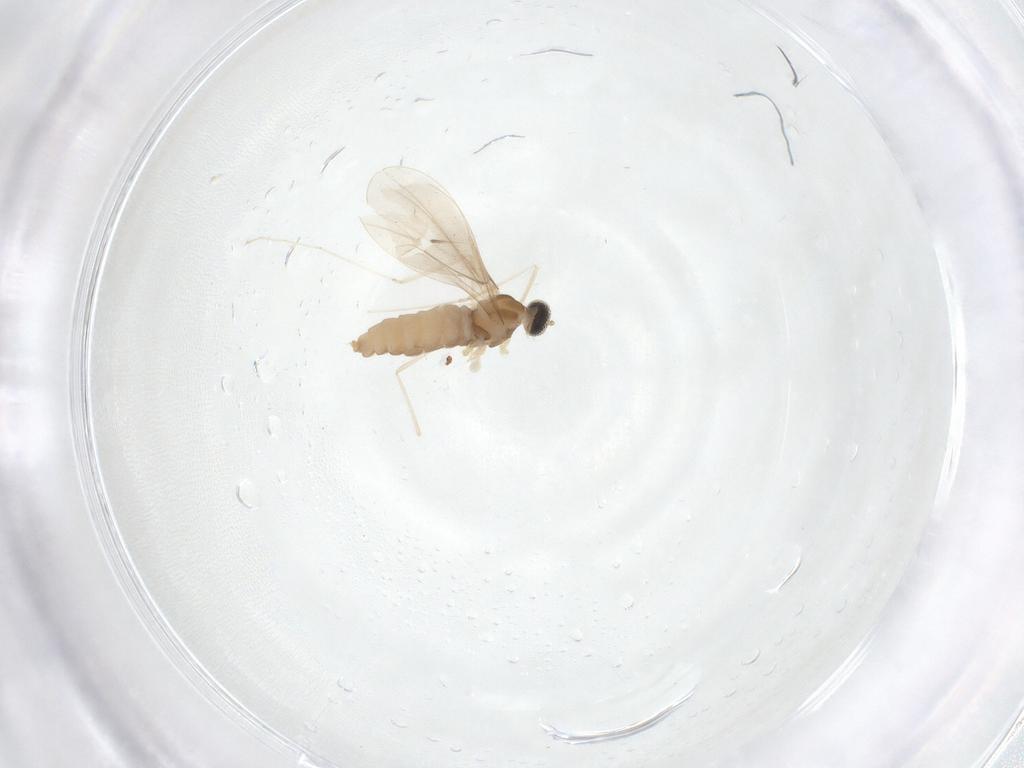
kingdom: Animalia
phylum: Arthropoda
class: Insecta
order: Diptera
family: Cecidomyiidae
